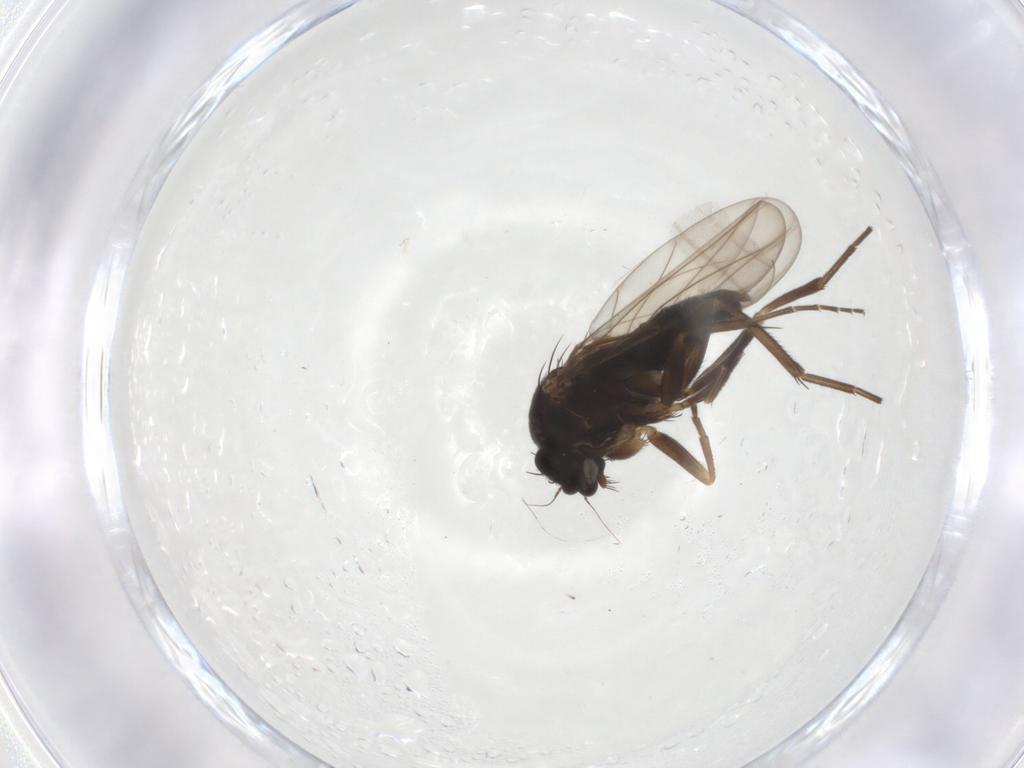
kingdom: Animalia
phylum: Arthropoda
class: Insecta
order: Diptera
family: Phoridae
